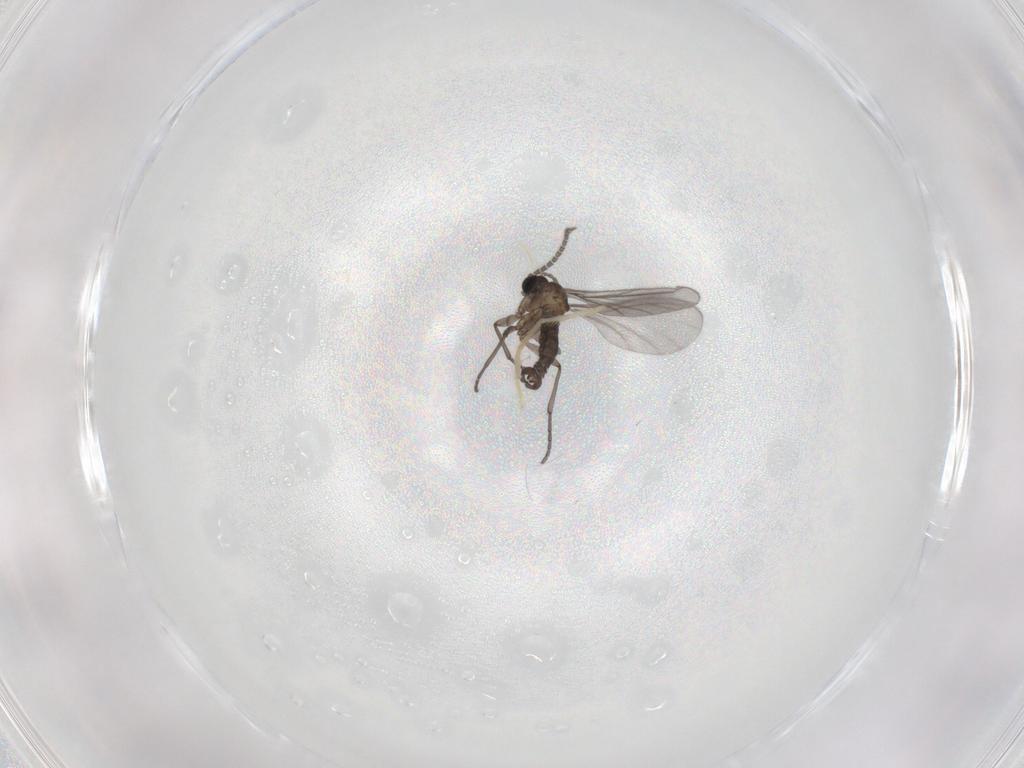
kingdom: Animalia
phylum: Arthropoda
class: Insecta
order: Diptera
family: Sciaridae
